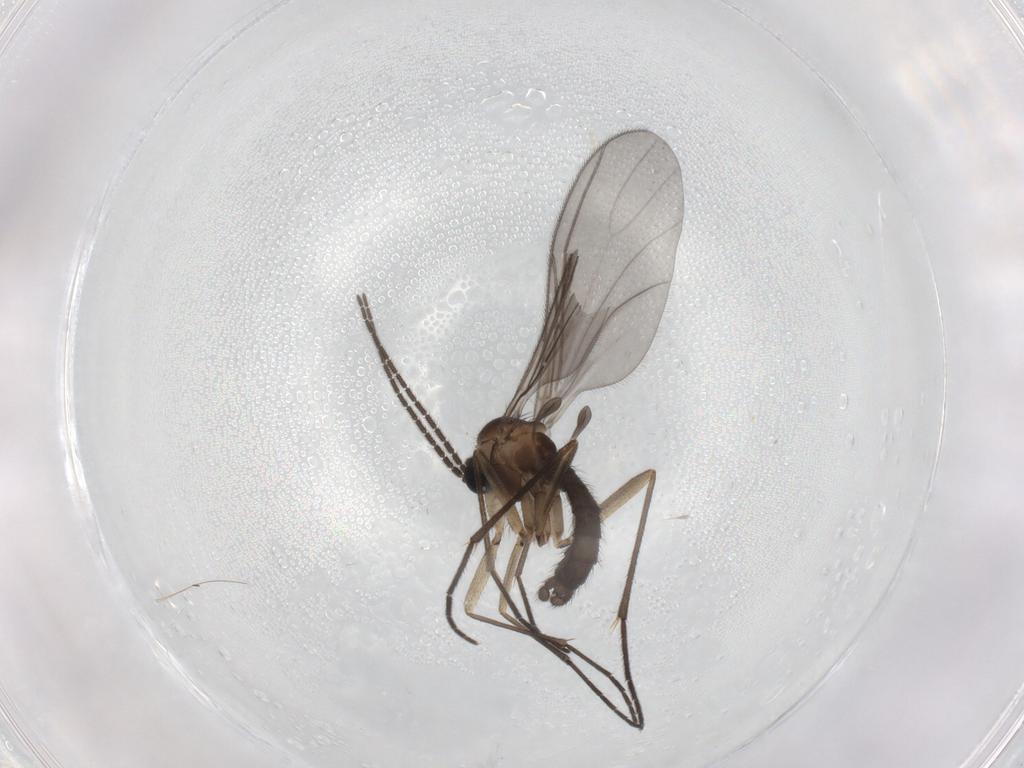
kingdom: Animalia
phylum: Arthropoda
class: Insecta
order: Diptera
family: Sciaridae
